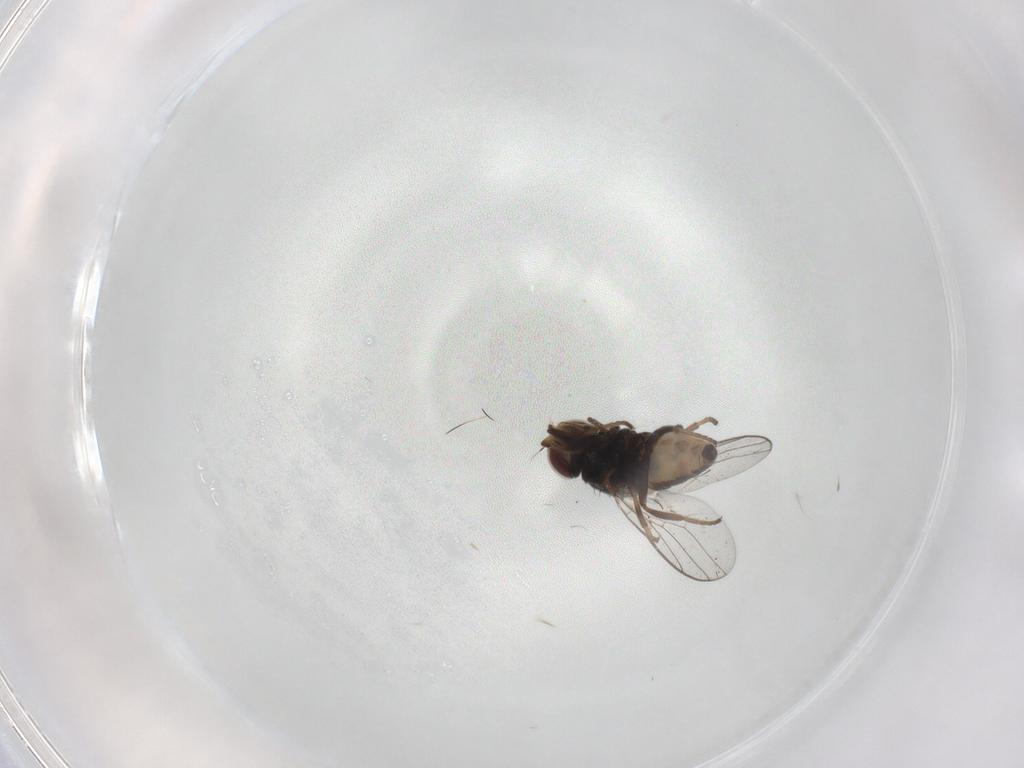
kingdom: Animalia
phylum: Arthropoda
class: Insecta
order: Diptera
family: Chloropidae
